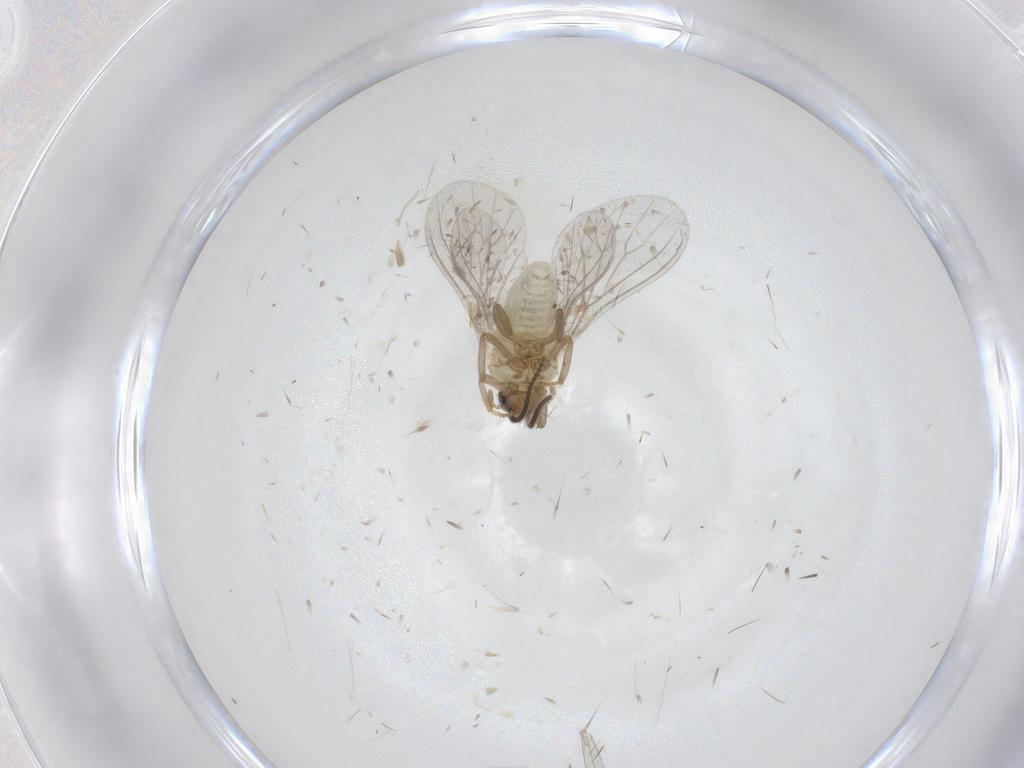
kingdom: Animalia
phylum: Arthropoda
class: Insecta
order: Neuroptera
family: Coniopterygidae
